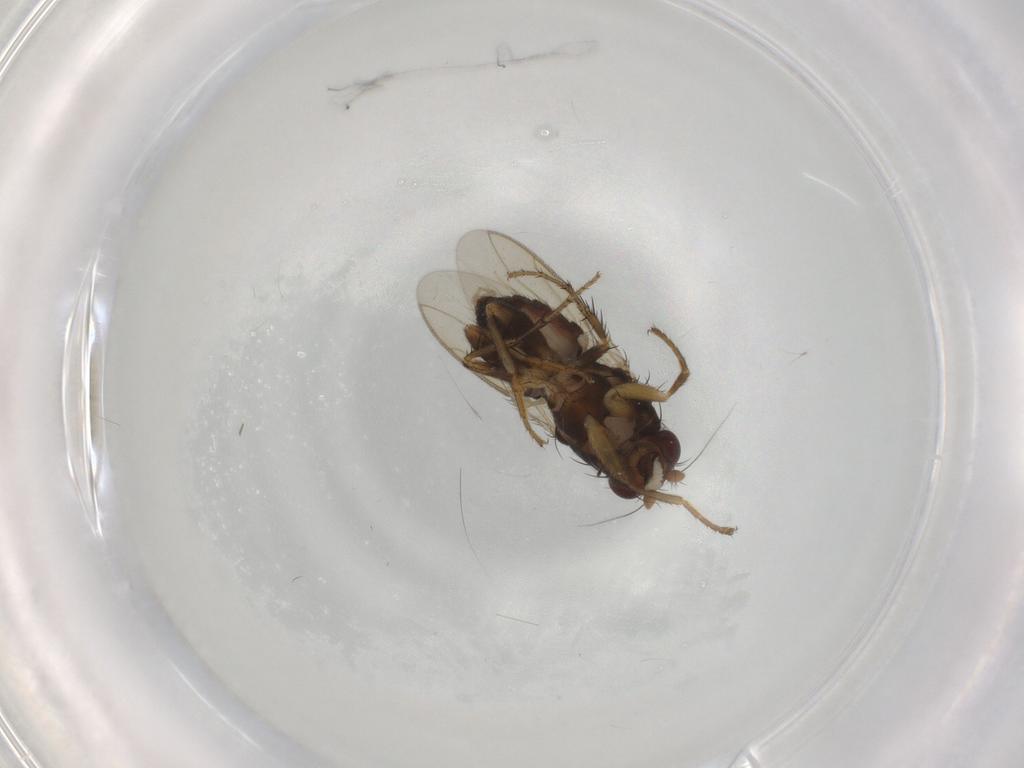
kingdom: Animalia
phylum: Arthropoda
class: Insecta
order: Diptera
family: Sphaeroceridae
